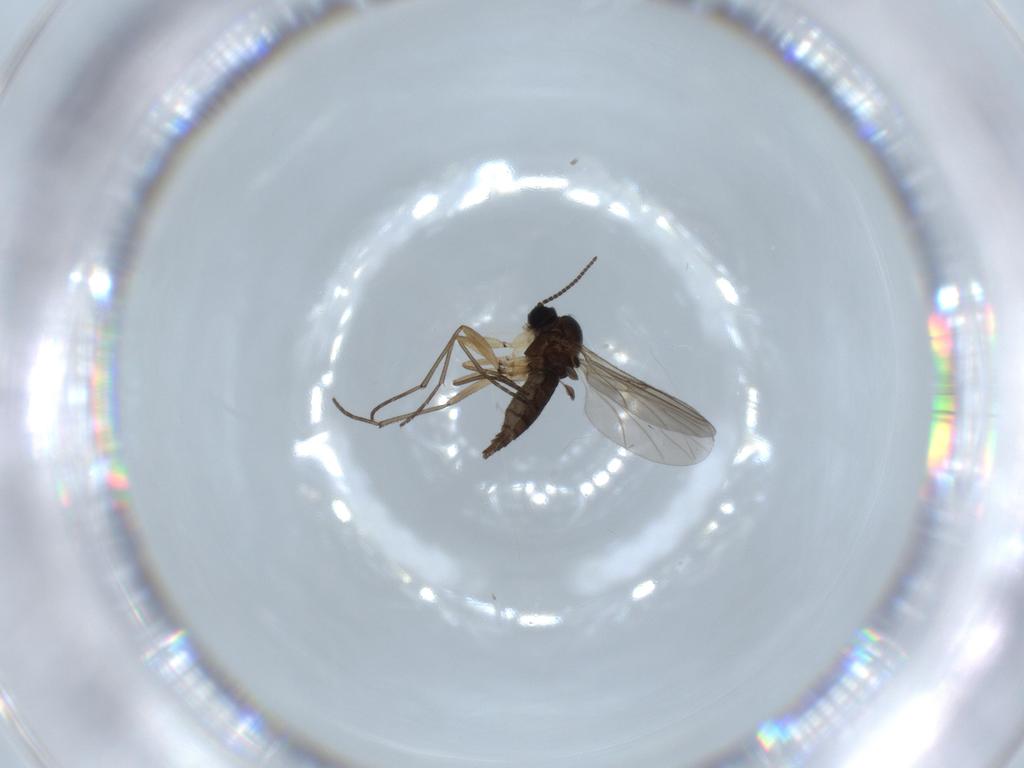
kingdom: Animalia
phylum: Arthropoda
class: Insecta
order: Diptera
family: Sciaridae
